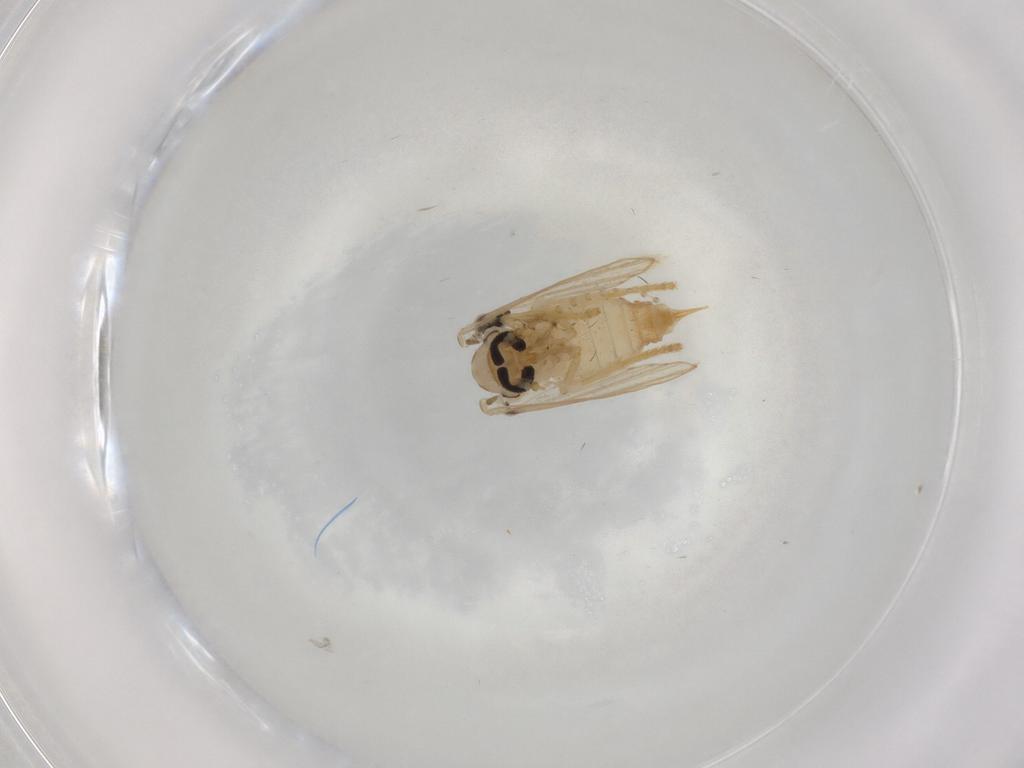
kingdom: Animalia
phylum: Arthropoda
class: Insecta
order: Diptera
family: Psychodidae
